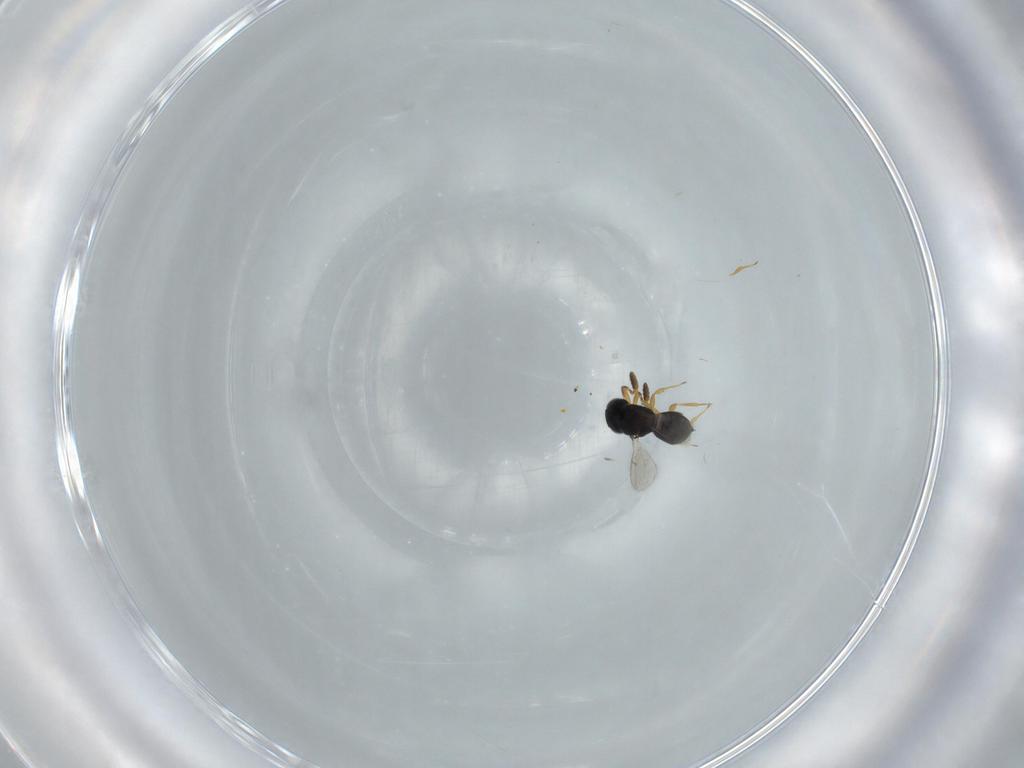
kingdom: Animalia
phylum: Arthropoda
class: Insecta
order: Hymenoptera
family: Scelionidae
